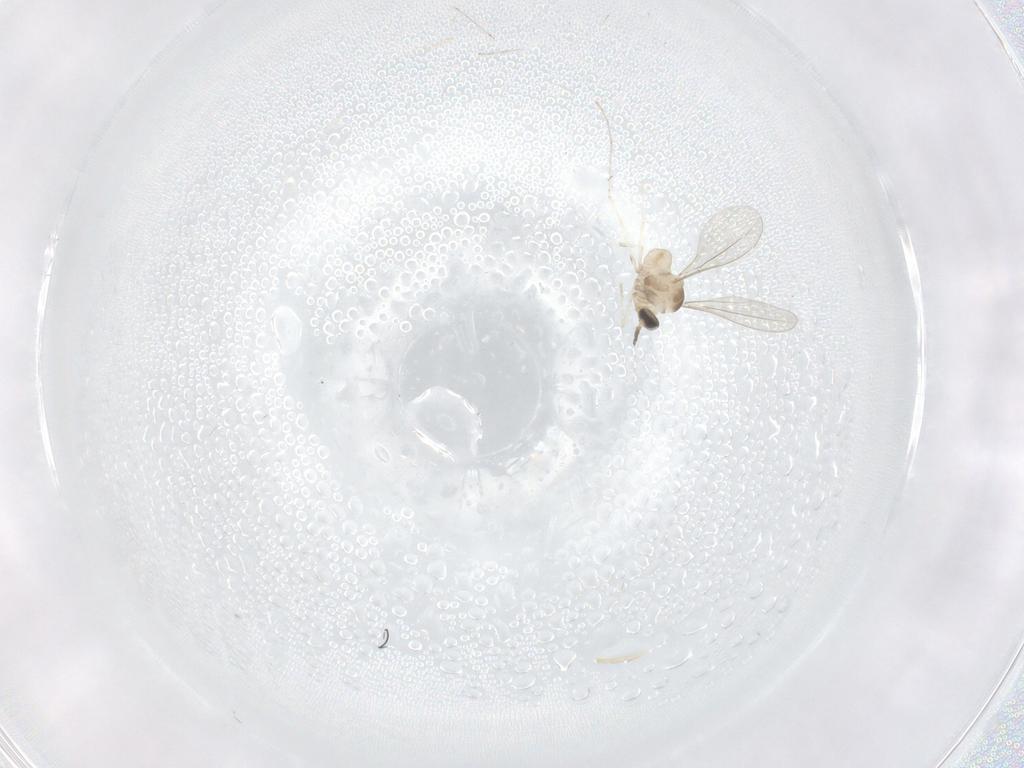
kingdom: Animalia
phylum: Arthropoda
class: Insecta
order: Diptera
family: Cecidomyiidae
